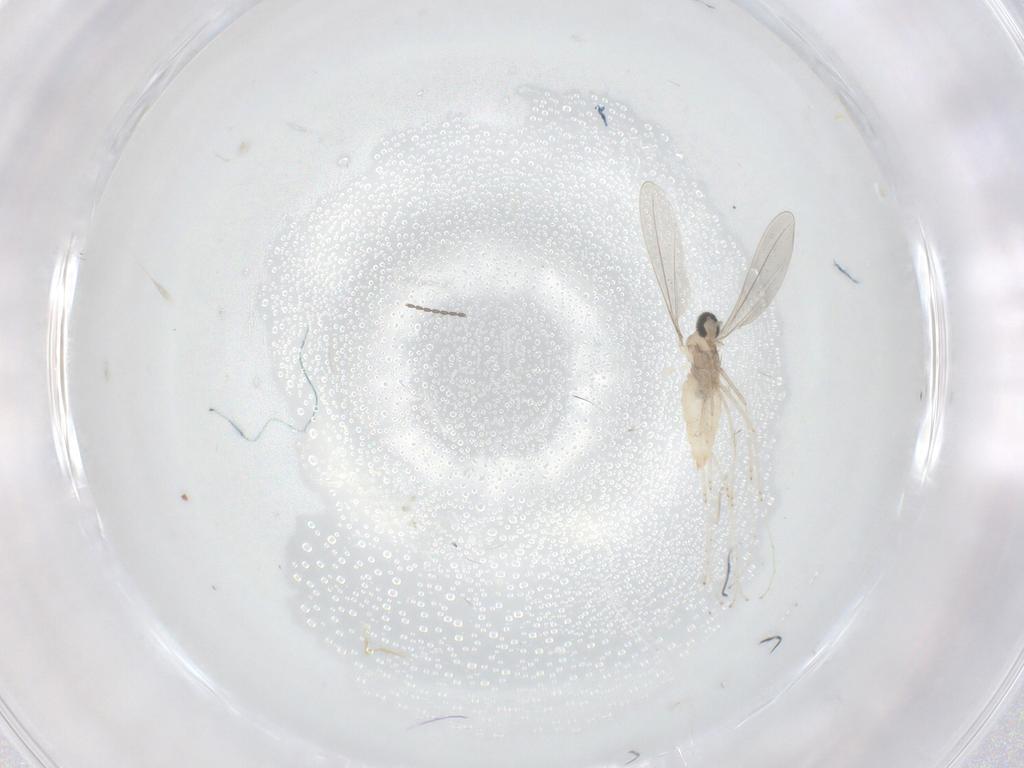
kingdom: Animalia
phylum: Arthropoda
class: Insecta
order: Diptera
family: Cecidomyiidae
